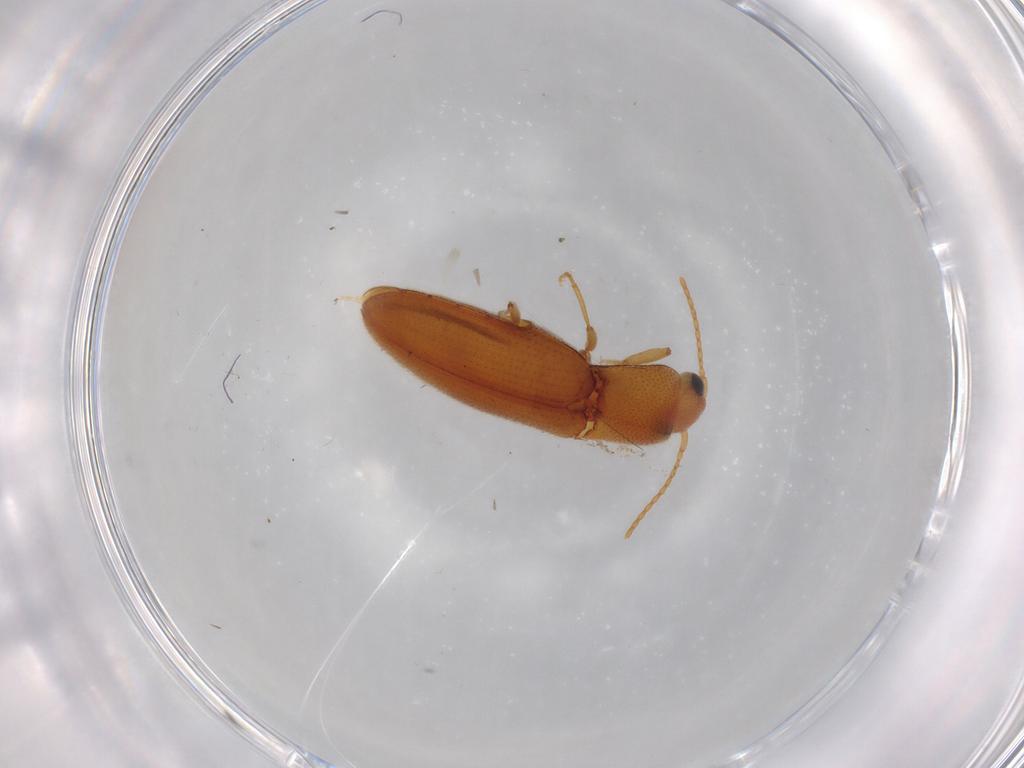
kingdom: Animalia
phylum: Arthropoda
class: Insecta
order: Coleoptera
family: Elateridae
